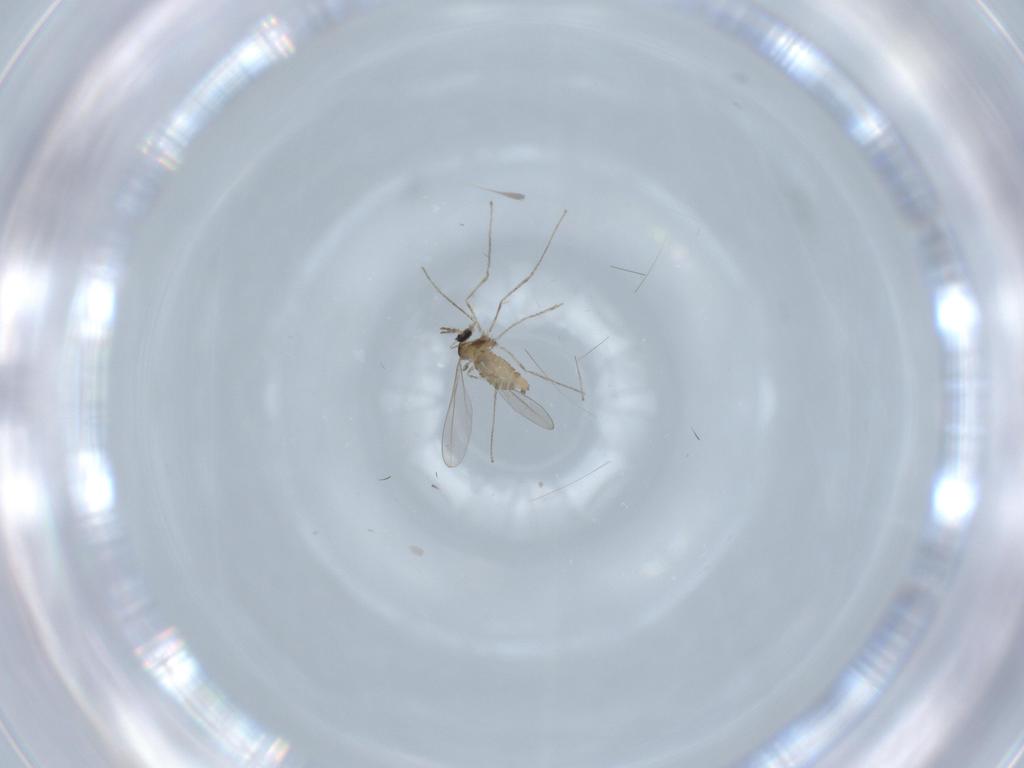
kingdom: Animalia
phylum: Arthropoda
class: Insecta
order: Diptera
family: Cecidomyiidae
